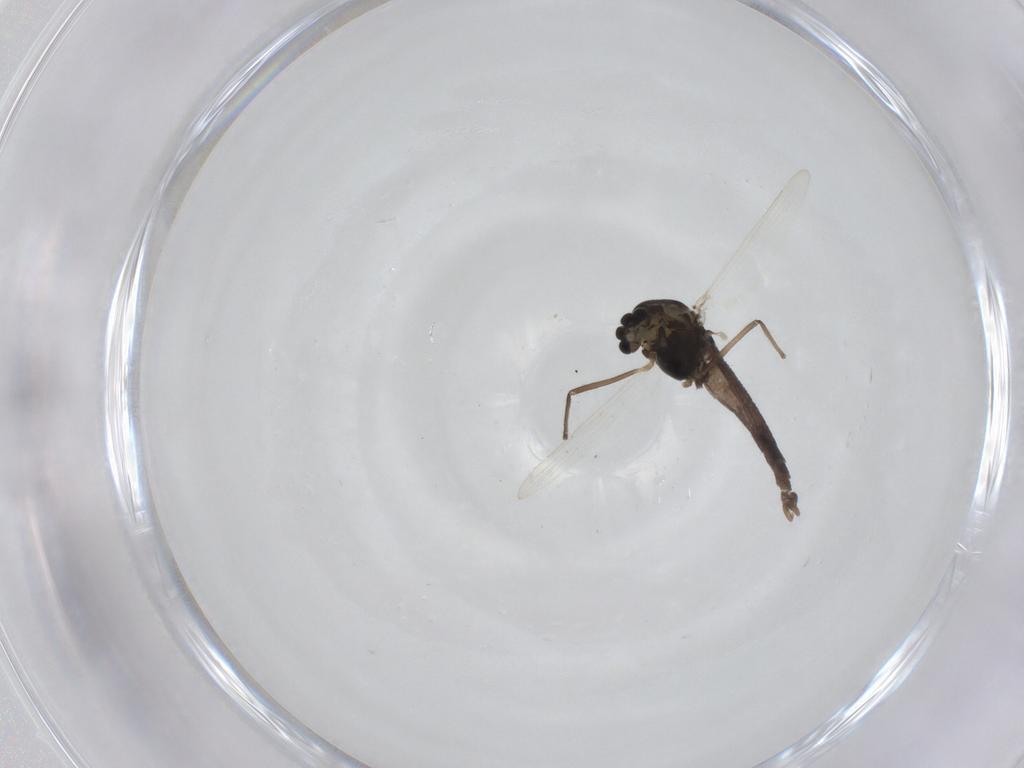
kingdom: Animalia
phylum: Arthropoda
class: Insecta
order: Diptera
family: Chironomidae
